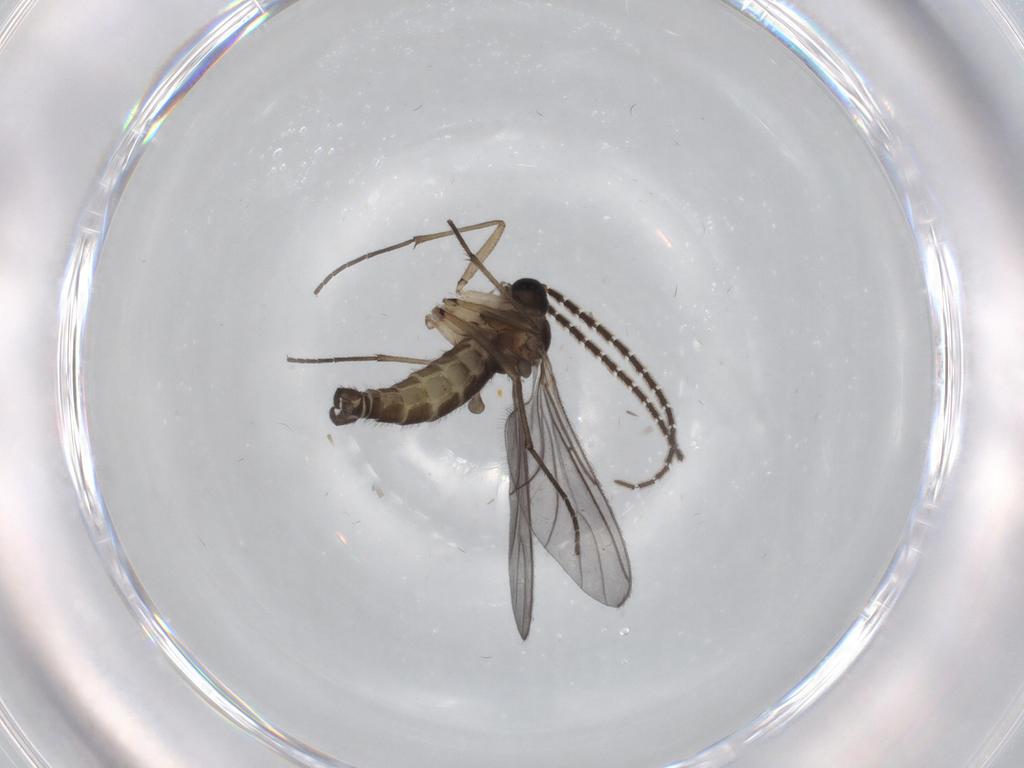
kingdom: Animalia
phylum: Arthropoda
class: Insecta
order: Diptera
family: Sciaridae
